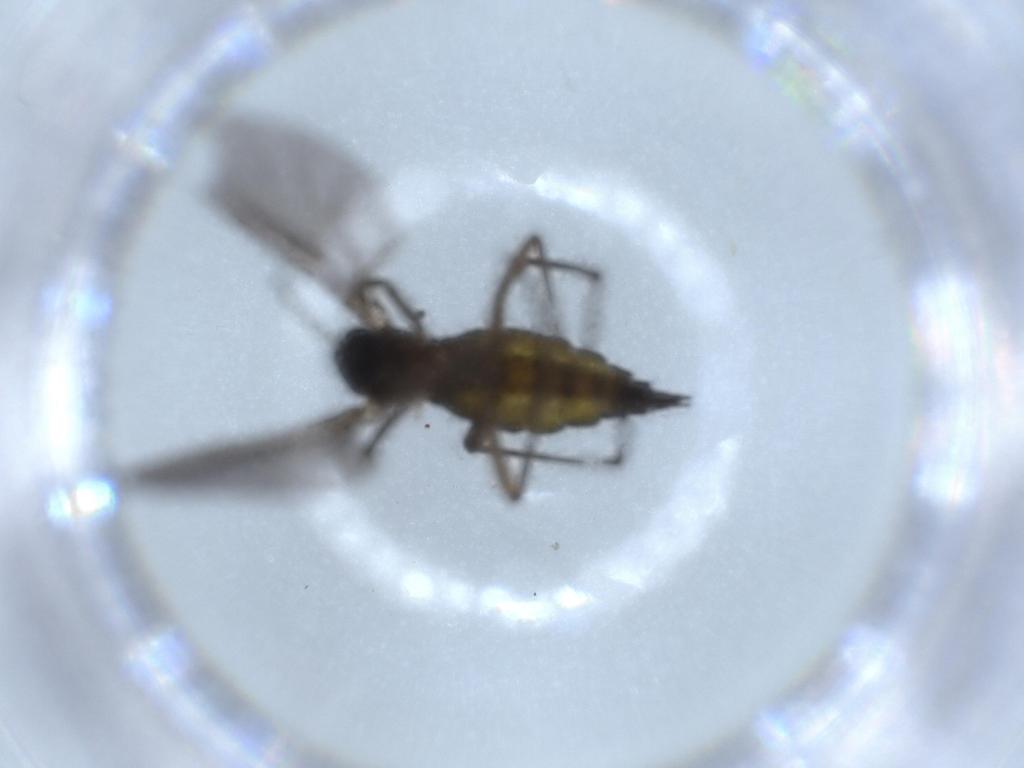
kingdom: Animalia
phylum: Arthropoda
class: Insecta
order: Diptera
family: Sciaridae
